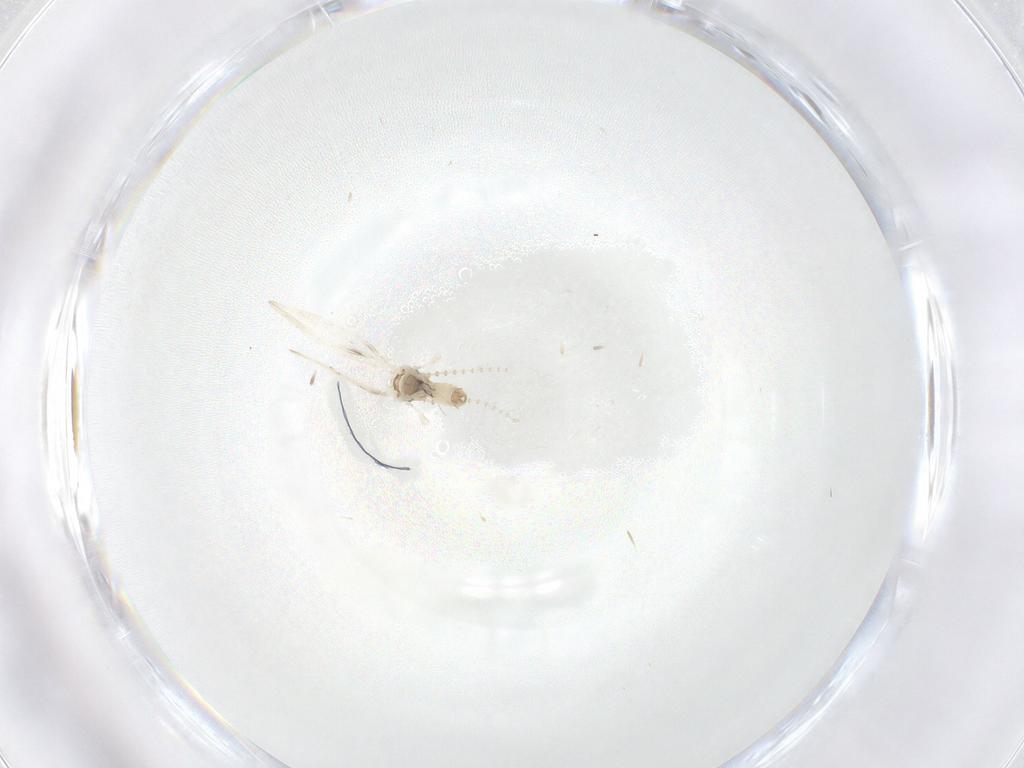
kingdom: Animalia
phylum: Arthropoda
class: Insecta
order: Diptera
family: Psychodidae
